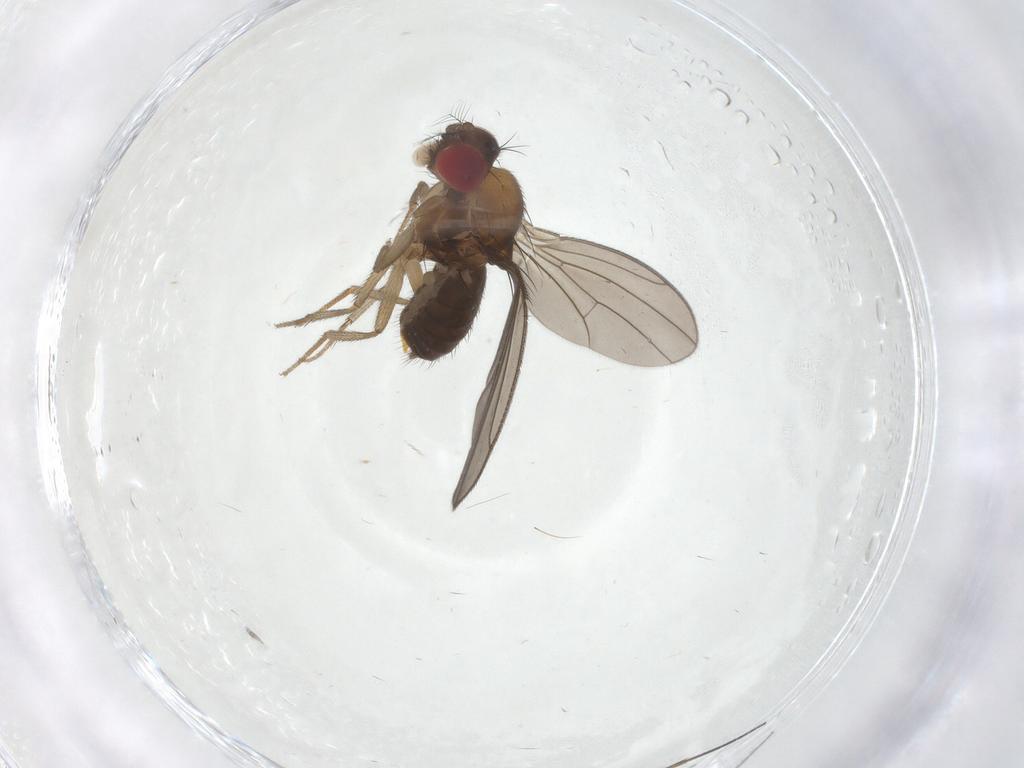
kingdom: Animalia
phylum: Arthropoda
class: Insecta
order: Diptera
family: Drosophilidae
